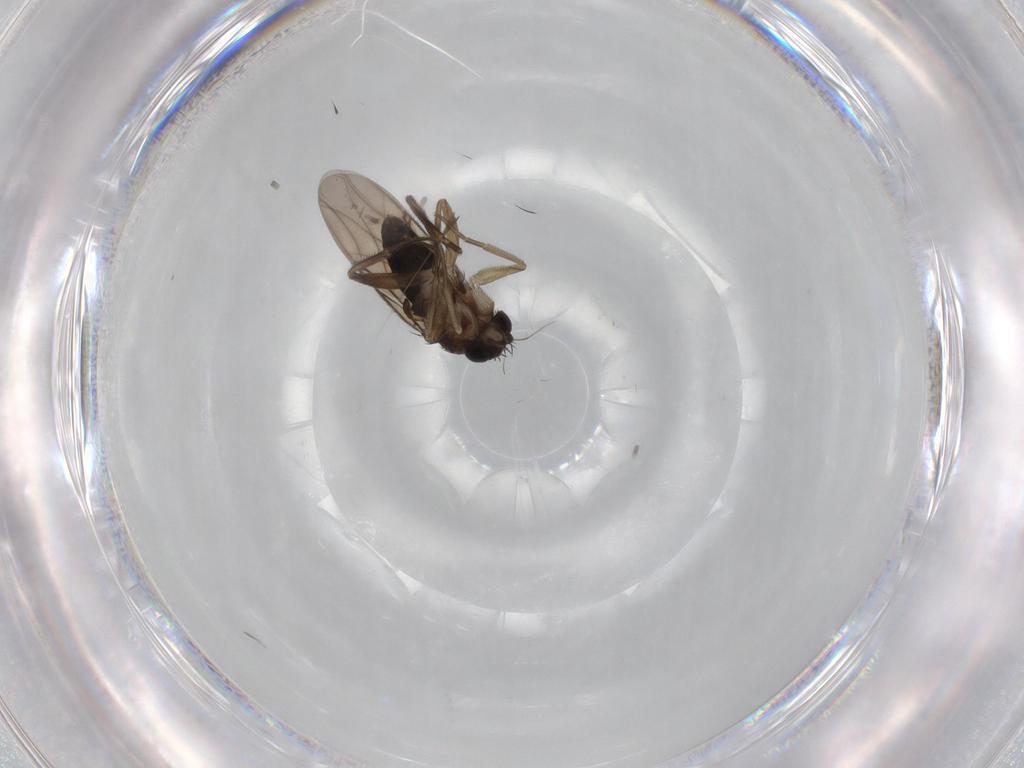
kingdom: Animalia
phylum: Arthropoda
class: Insecta
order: Diptera
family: Phoridae
